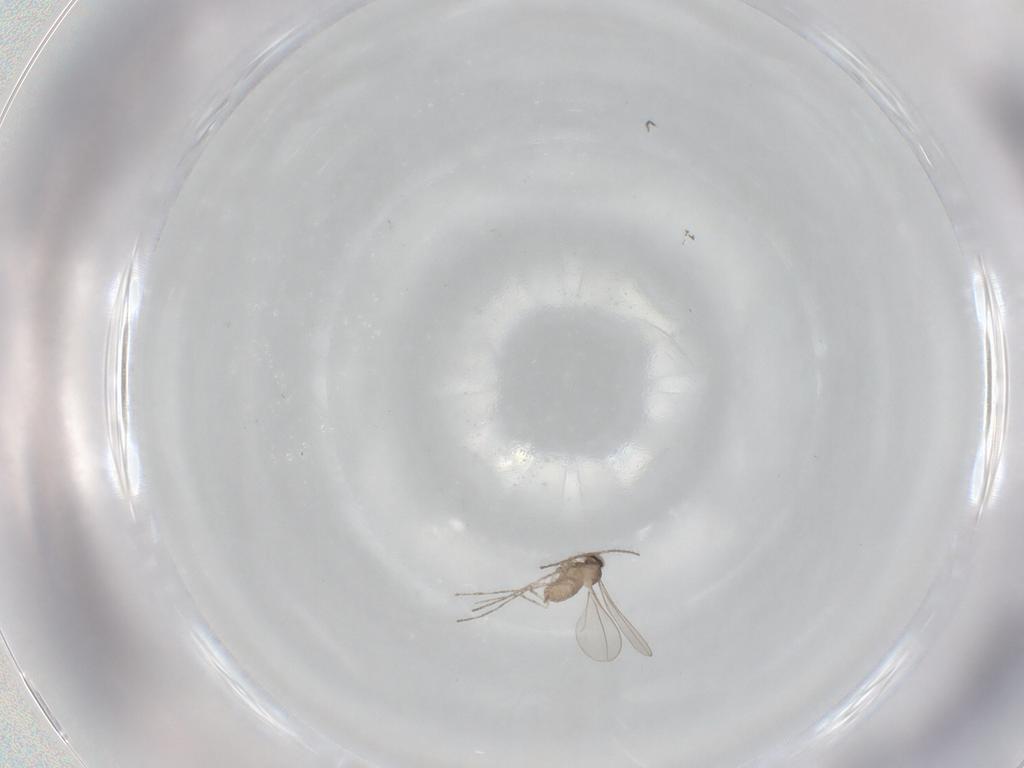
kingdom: Animalia
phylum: Arthropoda
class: Insecta
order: Diptera
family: Cecidomyiidae
